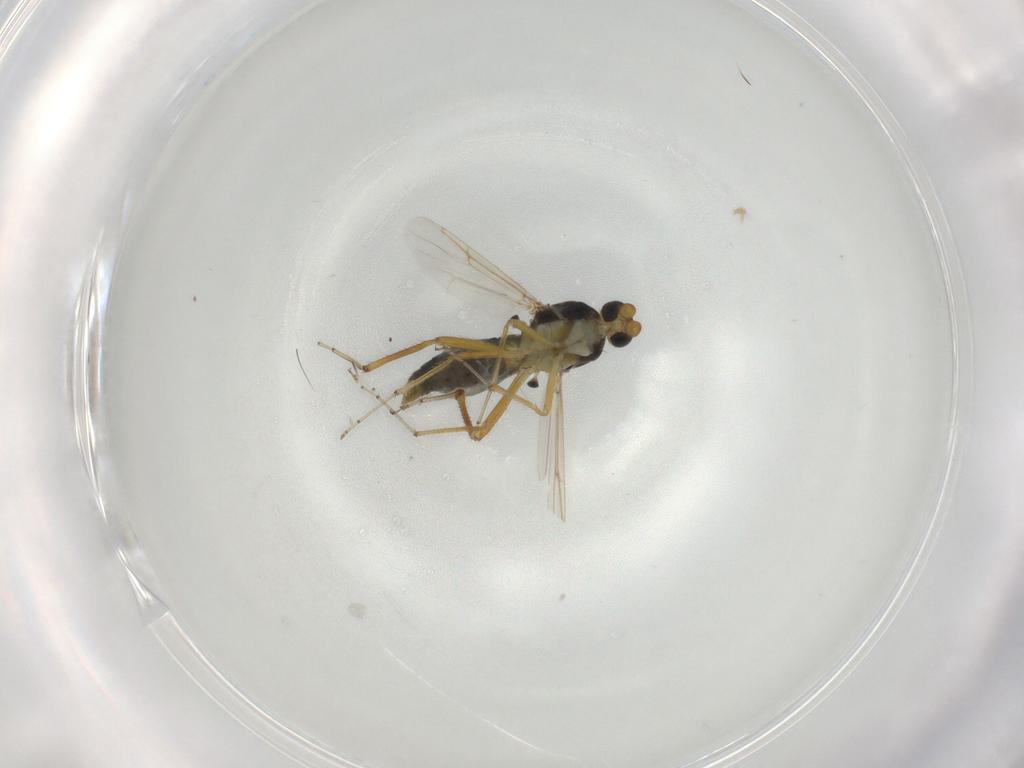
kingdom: Animalia
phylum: Arthropoda
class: Insecta
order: Diptera
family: Ceratopogonidae
